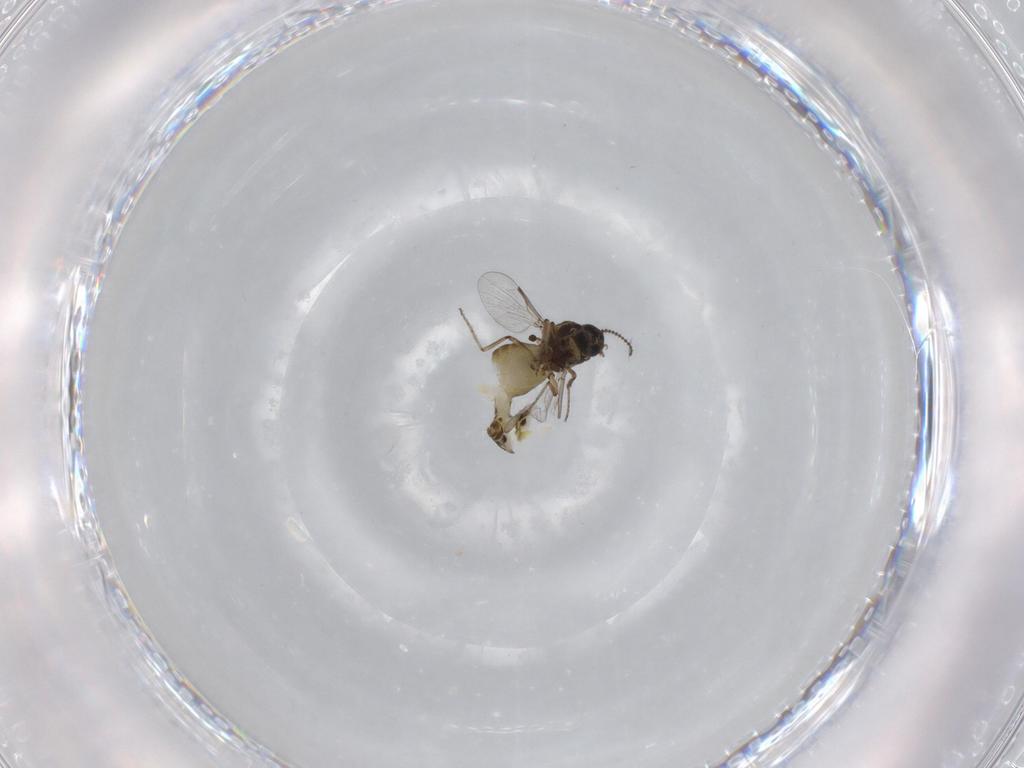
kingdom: Animalia
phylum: Arthropoda
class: Insecta
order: Diptera
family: Ceratopogonidae
